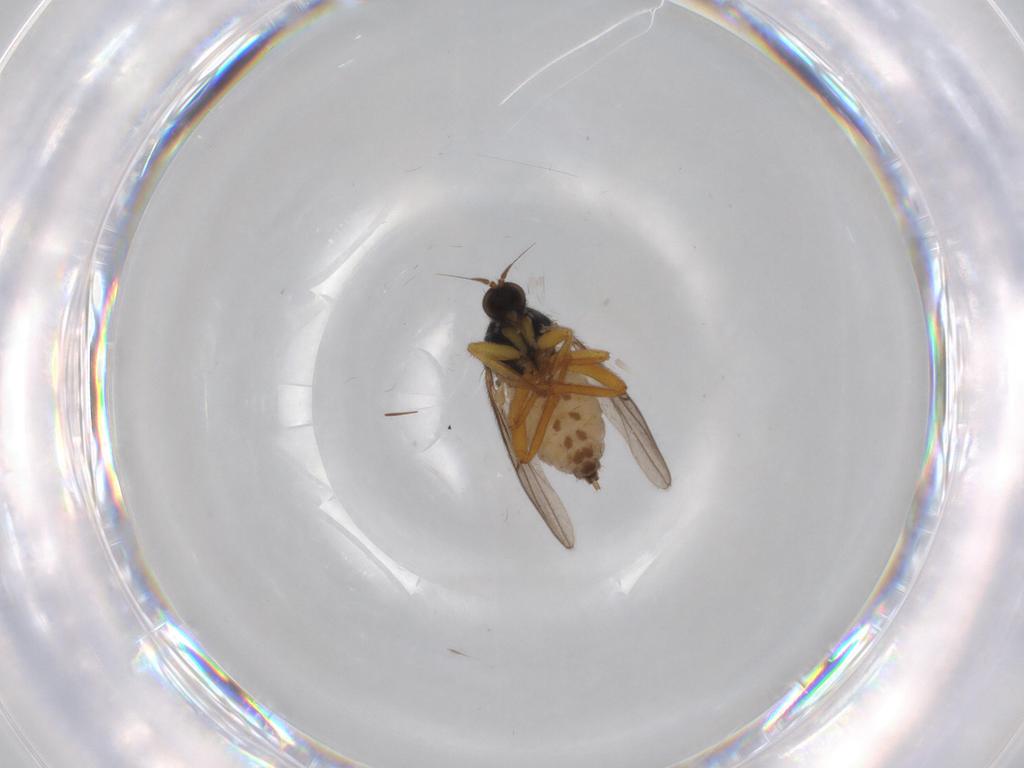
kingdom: Animalia
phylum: Arthropoda
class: Insecta
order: Diptera
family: Hybotidae
